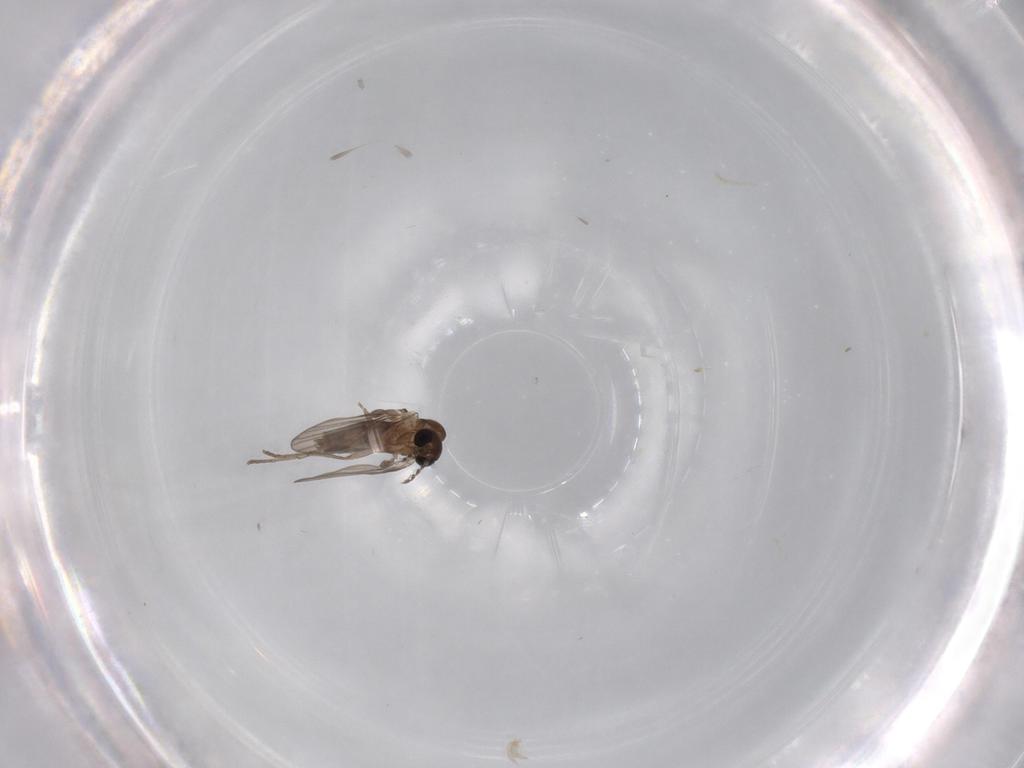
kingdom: Animalia
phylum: Arthropoda
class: Insecta
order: Diptera
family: Psychodidae
